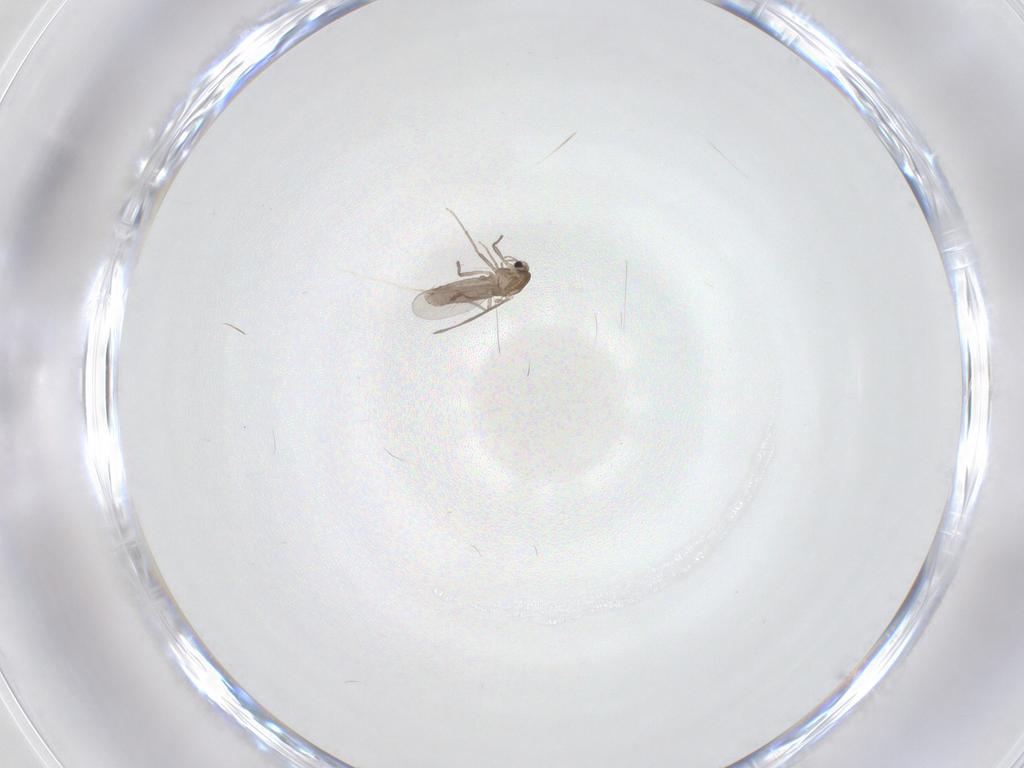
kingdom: Animalia
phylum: Arthropoda
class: Insecta
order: Diptera
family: Chironomidae
